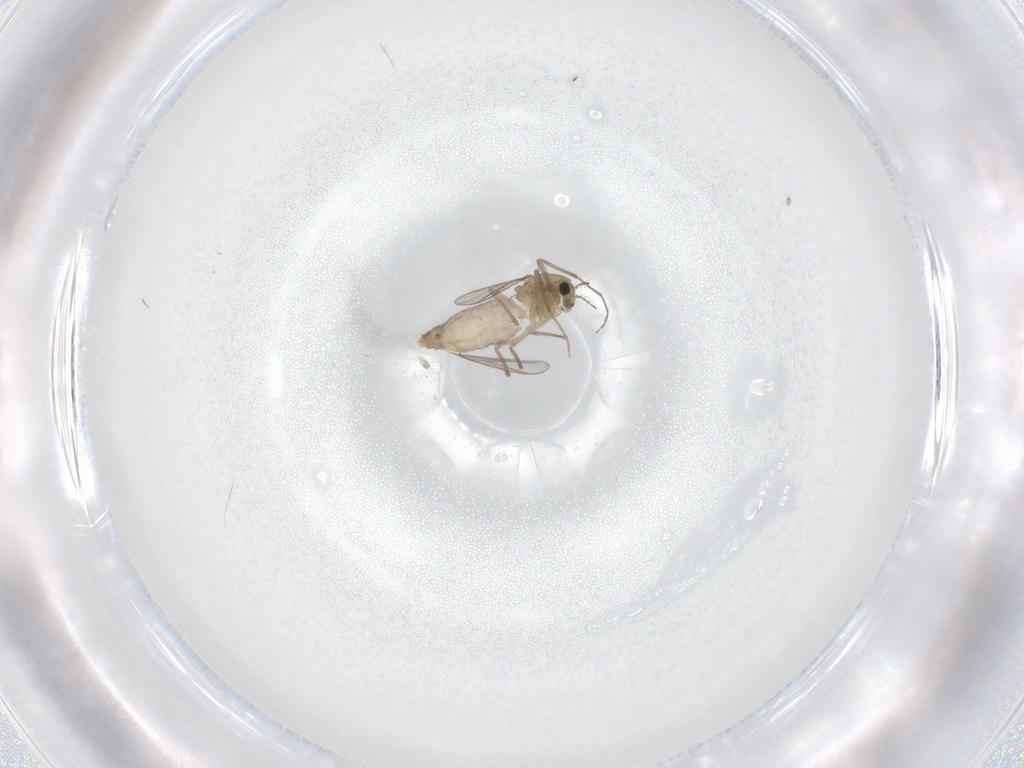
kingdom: Animalia
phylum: Arthropoda
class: Insecta
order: Diptera
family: Chironomidae
